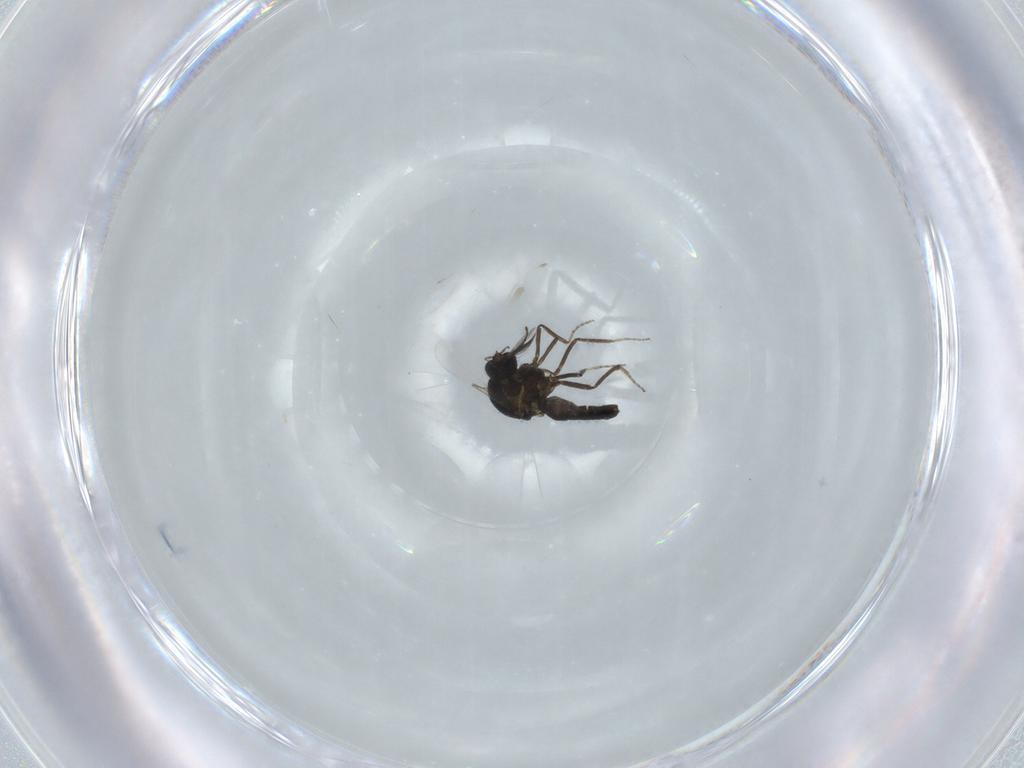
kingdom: Animalia
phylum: Arthropoda
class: Insecta
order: Diptera
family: Ceratopogonidae
